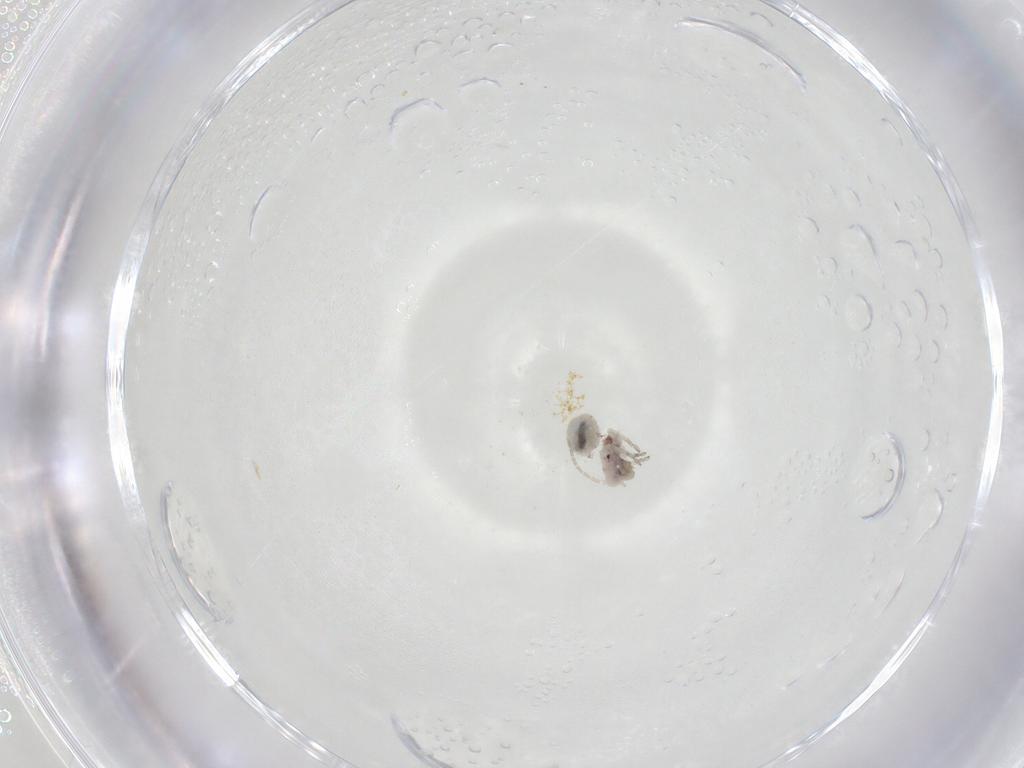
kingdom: Animalia
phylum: Arthropoda
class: Insecta
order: Psocodea
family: Amphipsocidae
